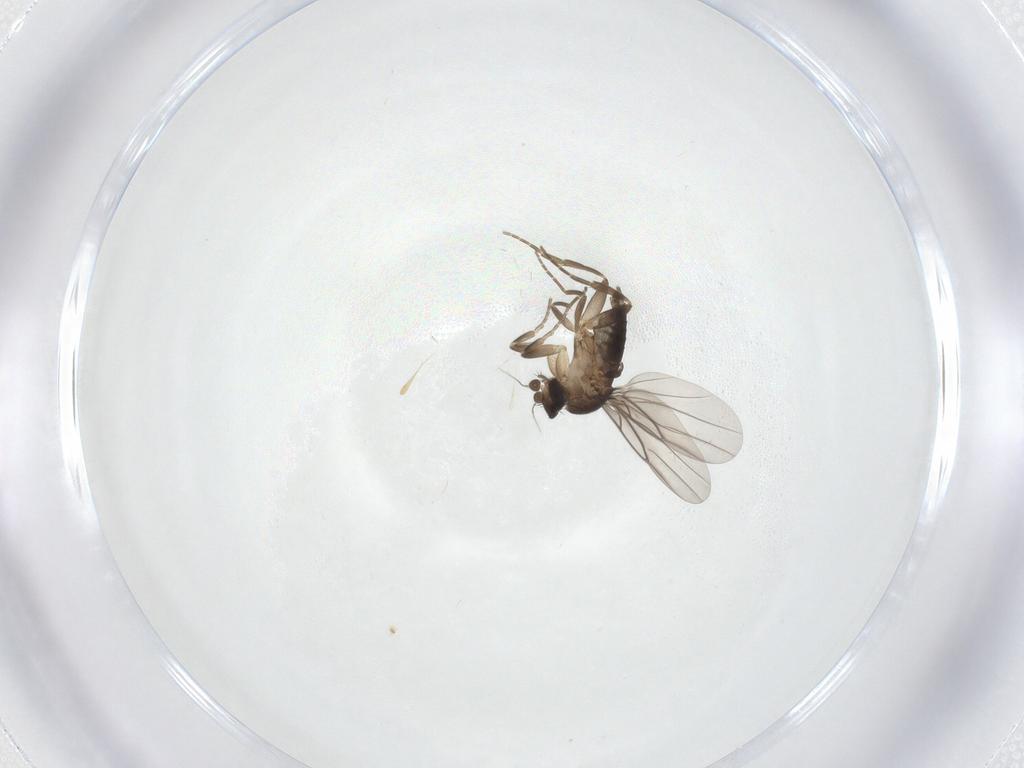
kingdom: Animalia
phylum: Arthropoda
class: Insecta
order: Diptera
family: Phoridae
